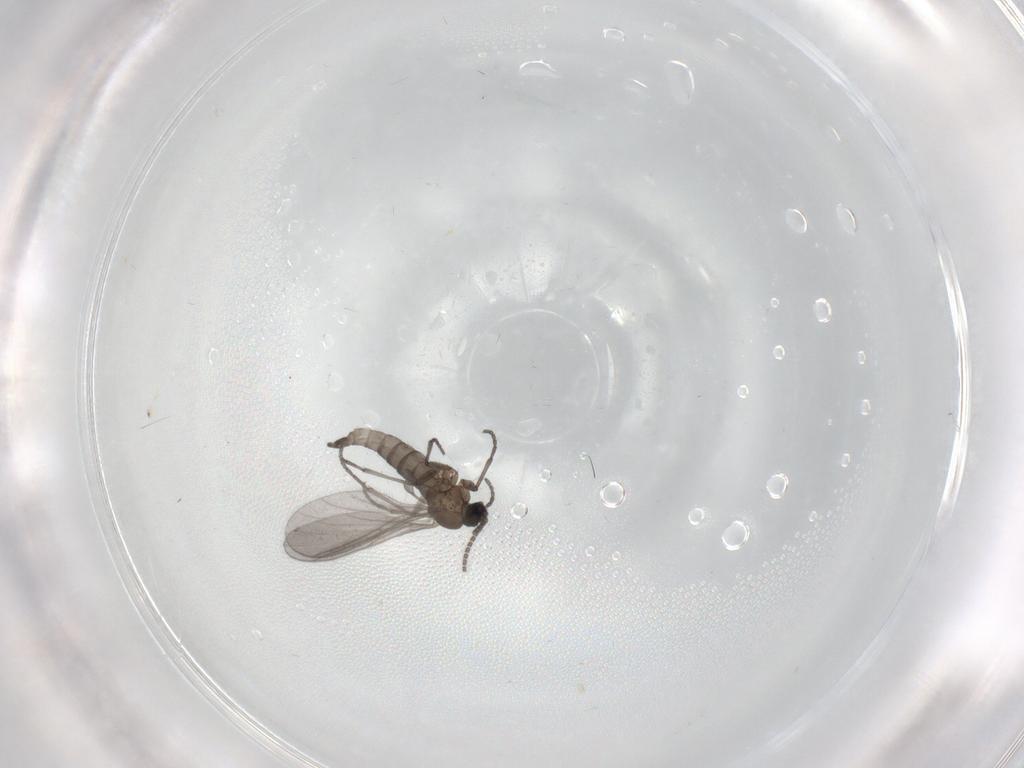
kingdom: Animalia
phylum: Arthropoda
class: Insecta
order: Diptera
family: Sciaridae
